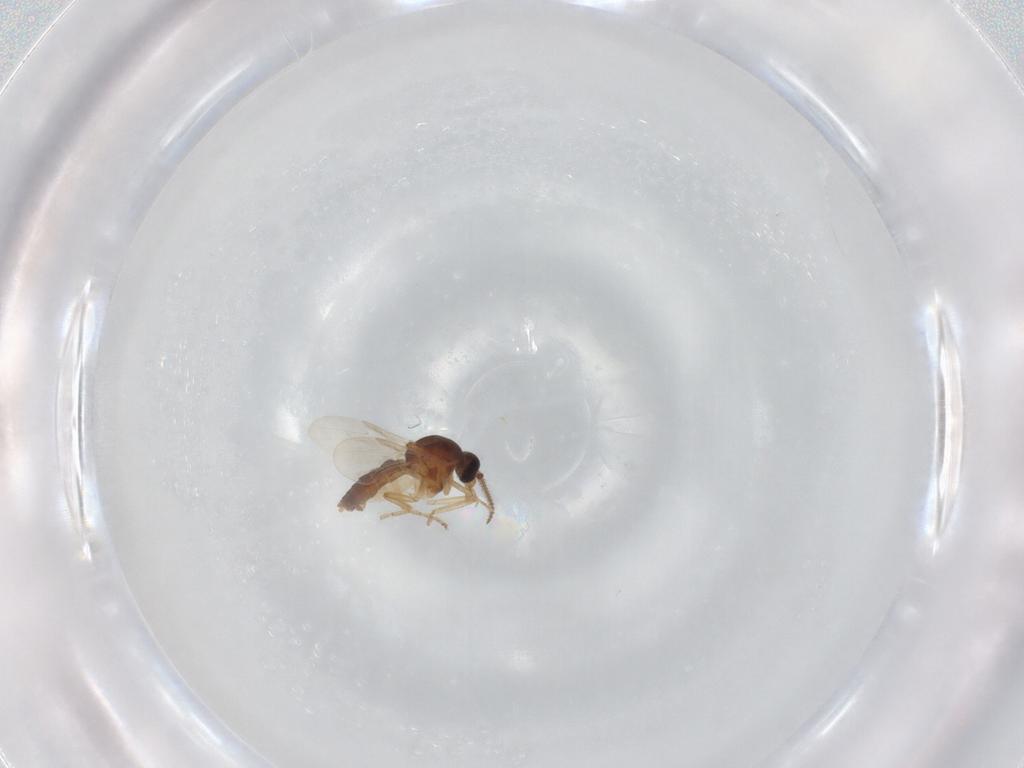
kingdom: Animalia
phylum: Arthropoda
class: Insecta
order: Diptera
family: Ceratopogonidae
